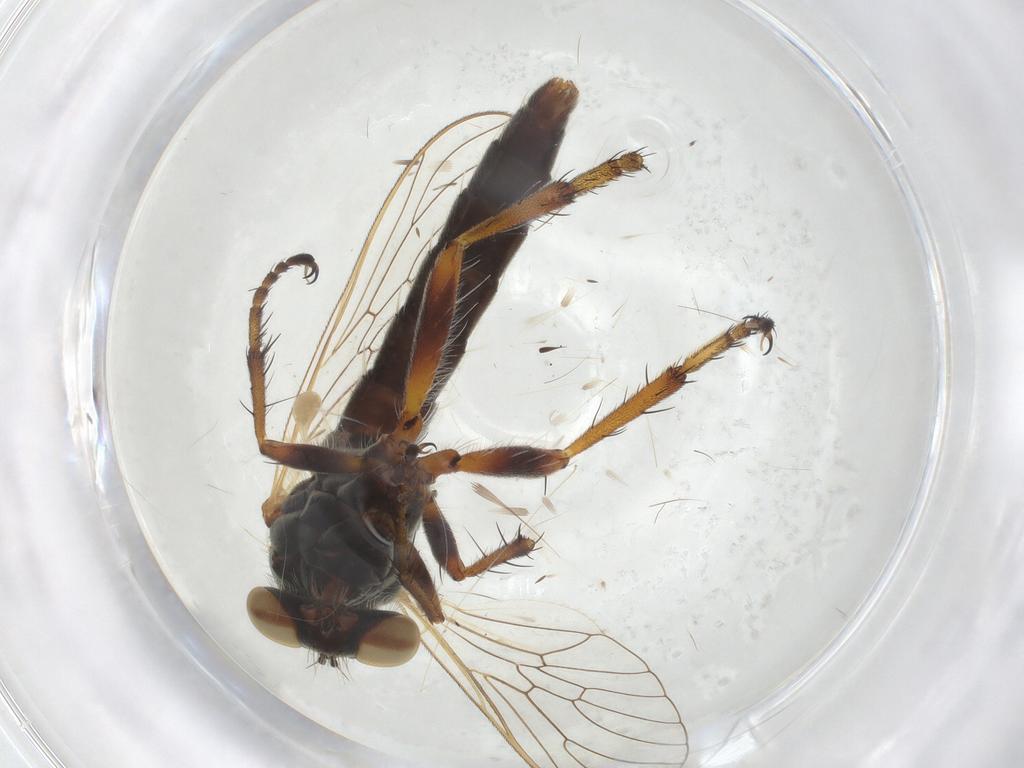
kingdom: Animalia
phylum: Arthropoda
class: Insecta
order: Diptera
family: Asilidae
